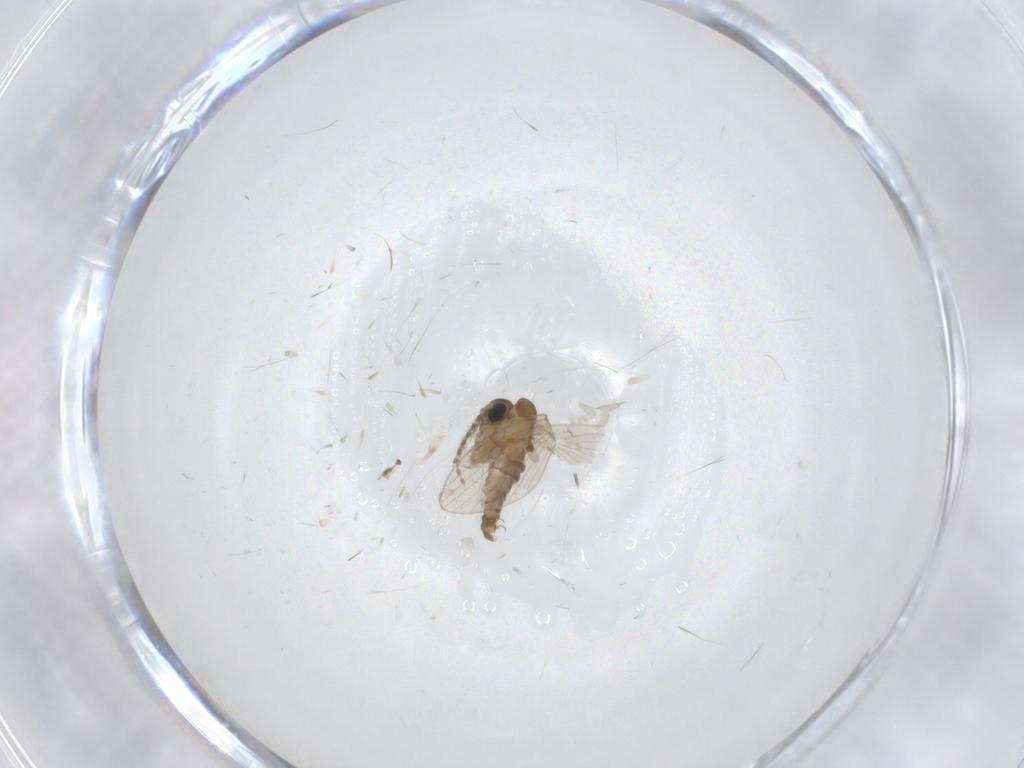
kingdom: Animalia
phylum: Arthropoda
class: Insecta
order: Diptera
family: Psychodidae
